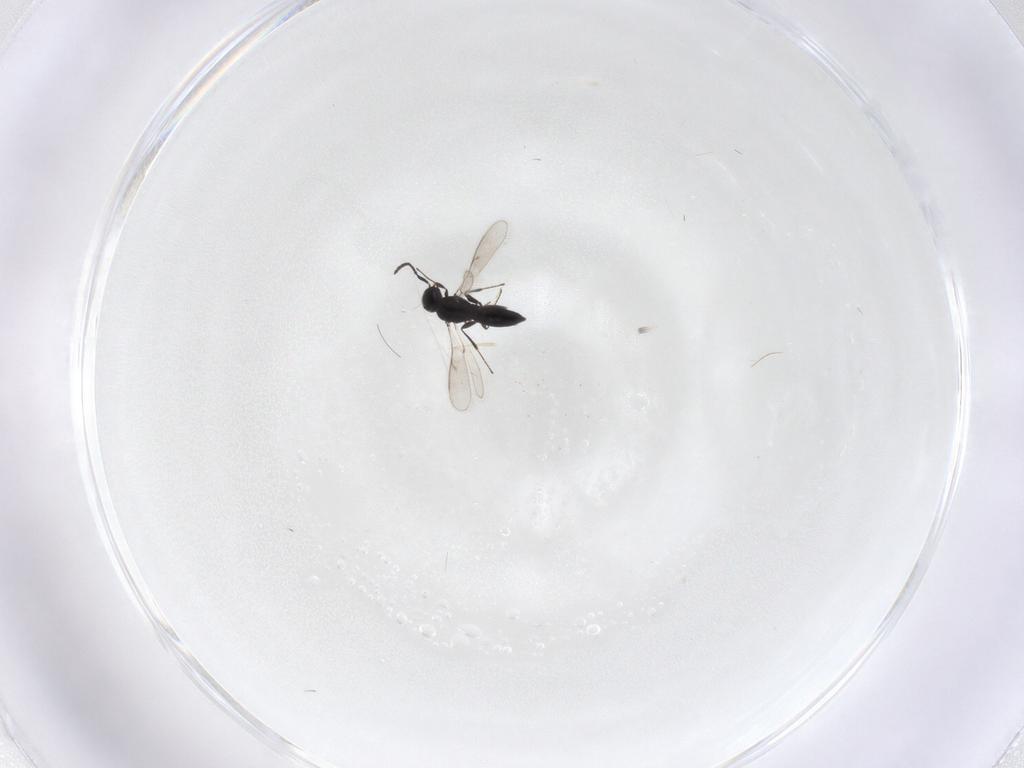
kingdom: Animalia
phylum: Arthropoda
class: Insecta
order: Hymenoptera
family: Scelionidae
